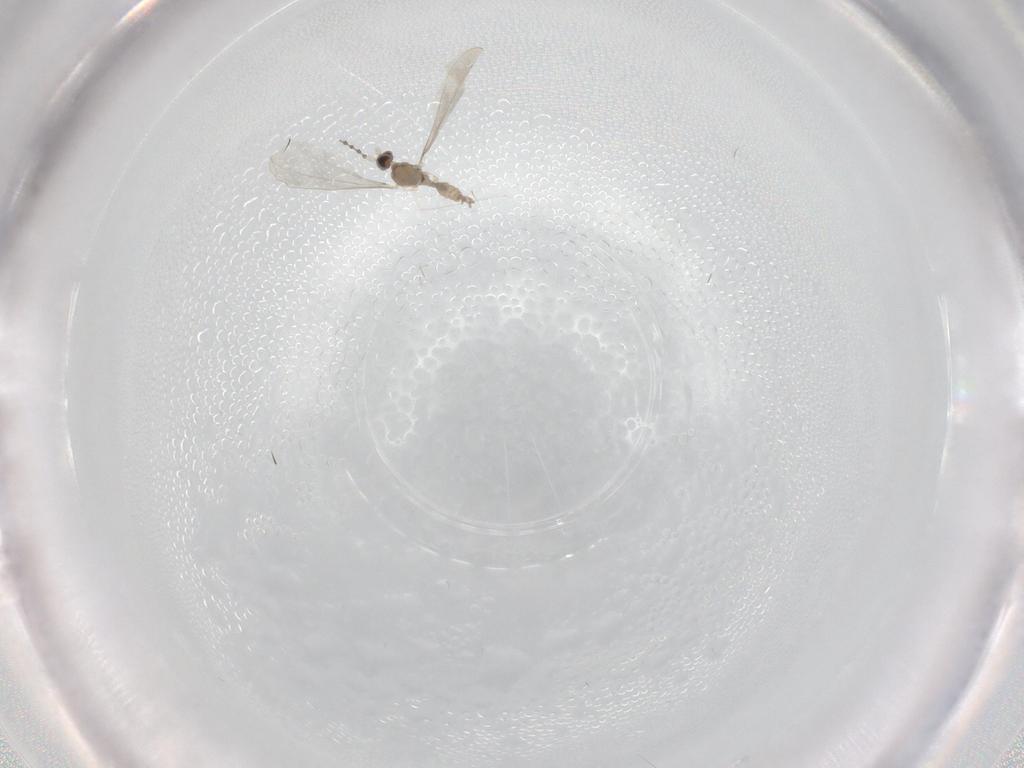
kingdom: Animalia
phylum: Arthropoda
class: Insecta
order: Diptera
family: Cecidomyiidae
